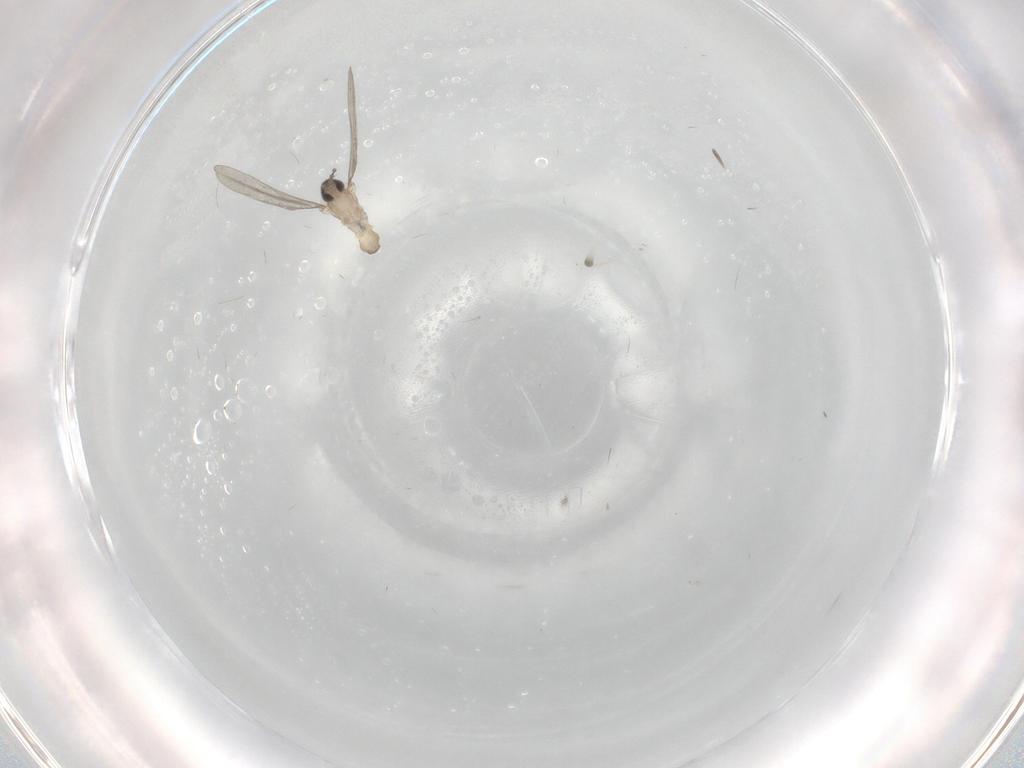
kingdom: Animalia
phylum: Arthropoda
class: Insecta
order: Diptera
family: Cecidomyiidae
